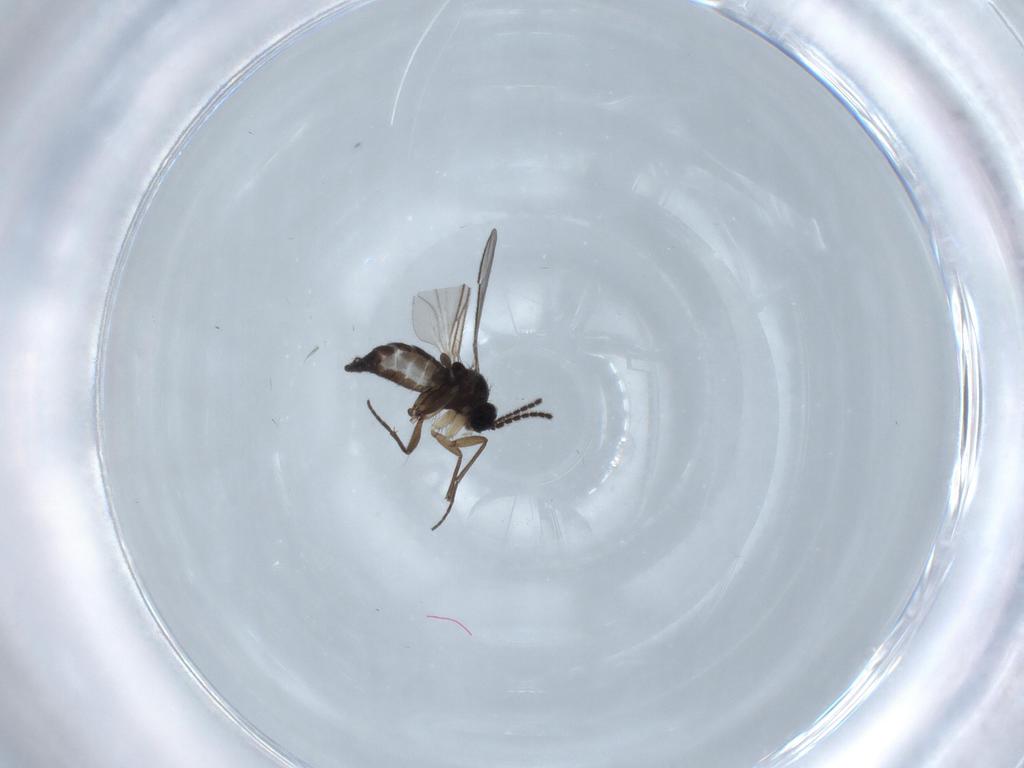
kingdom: Animalia
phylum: Arthropoda
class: Insecta
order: Diptera
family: Sciaridae
